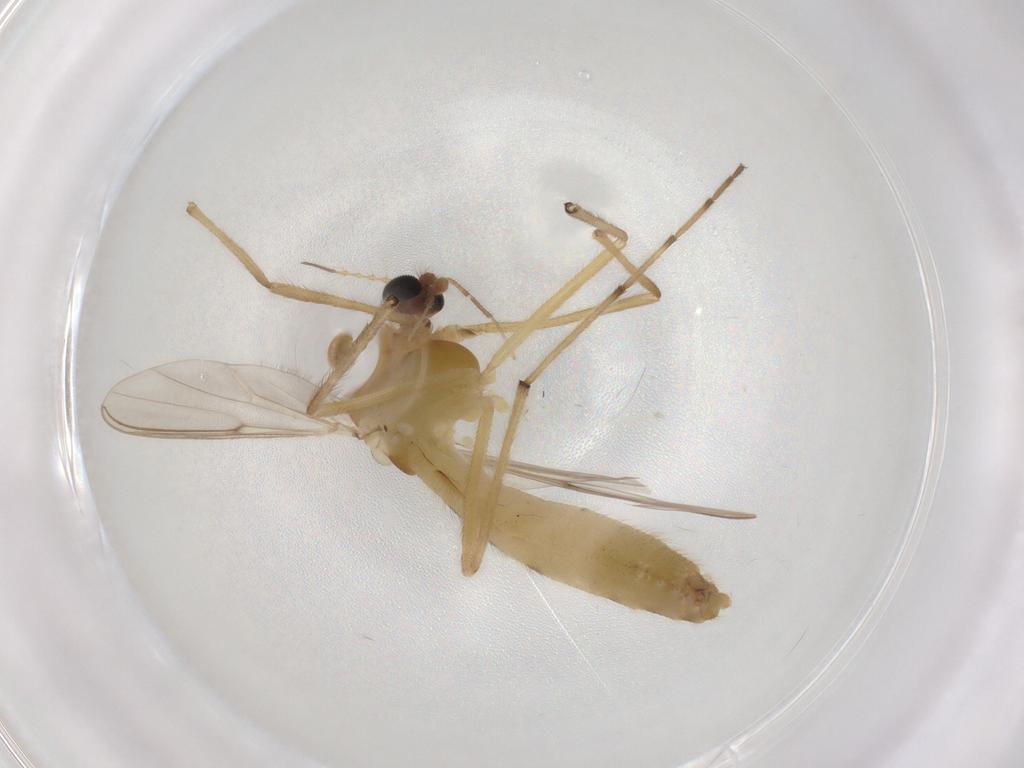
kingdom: Animalia
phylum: Arthropoda
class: Insecta
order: Diptera
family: Chironomidae
